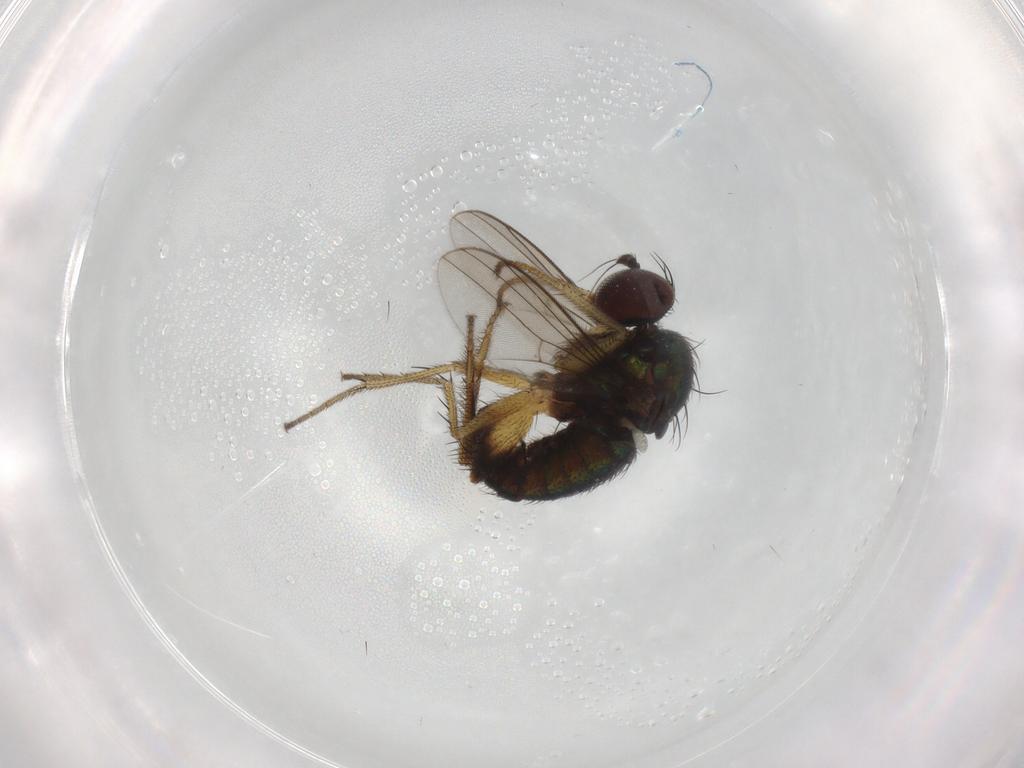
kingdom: Animalia
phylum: Arthropoda
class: Insecta
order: Diptera
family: Dolichopodidae
